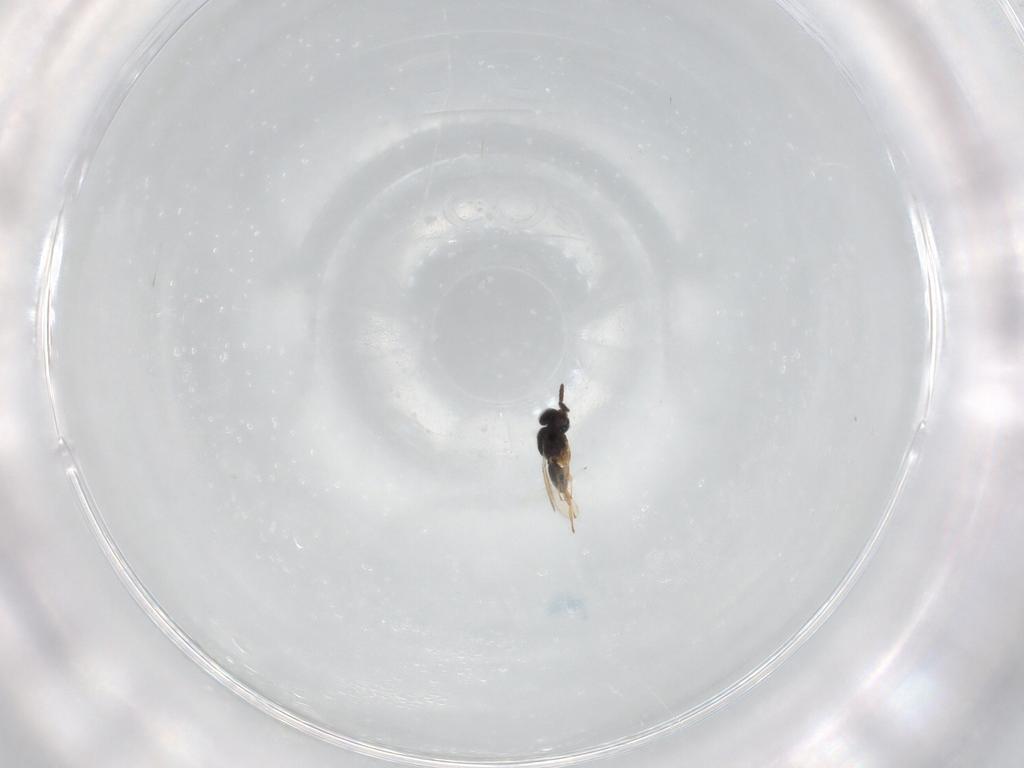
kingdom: Animalia
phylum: Arthropoda
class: Insecta
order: Hymenoptera
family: Scelionidae
